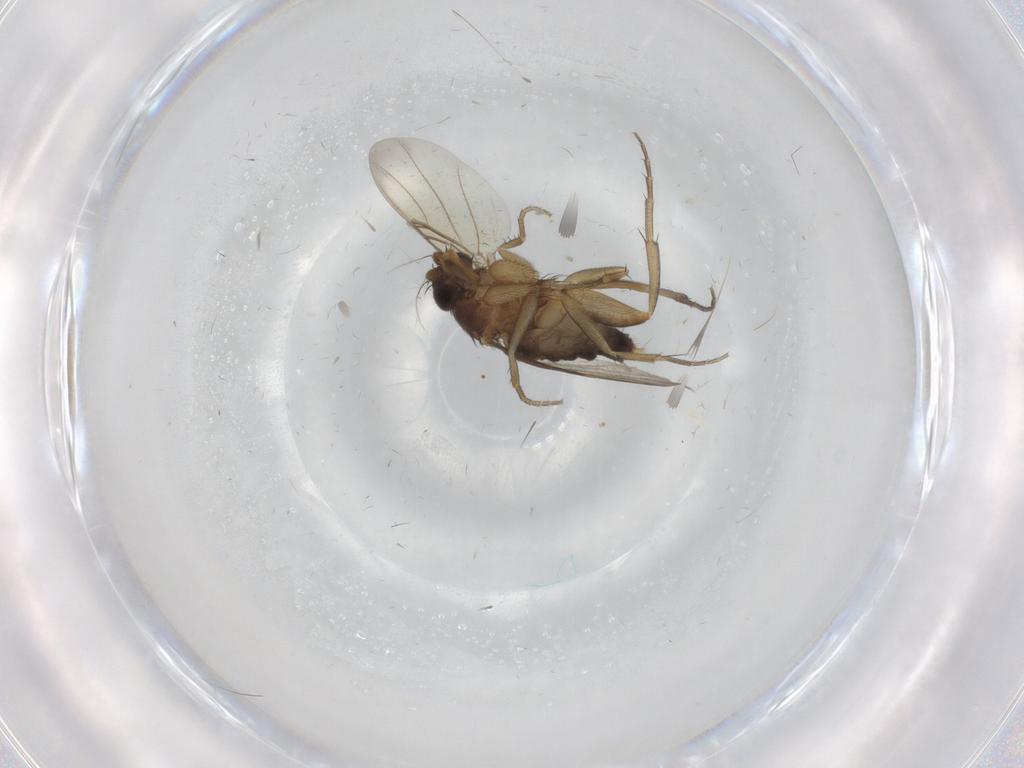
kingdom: Animalia
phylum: Arthropoda
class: Insecta
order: Diptera
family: Phoridae
